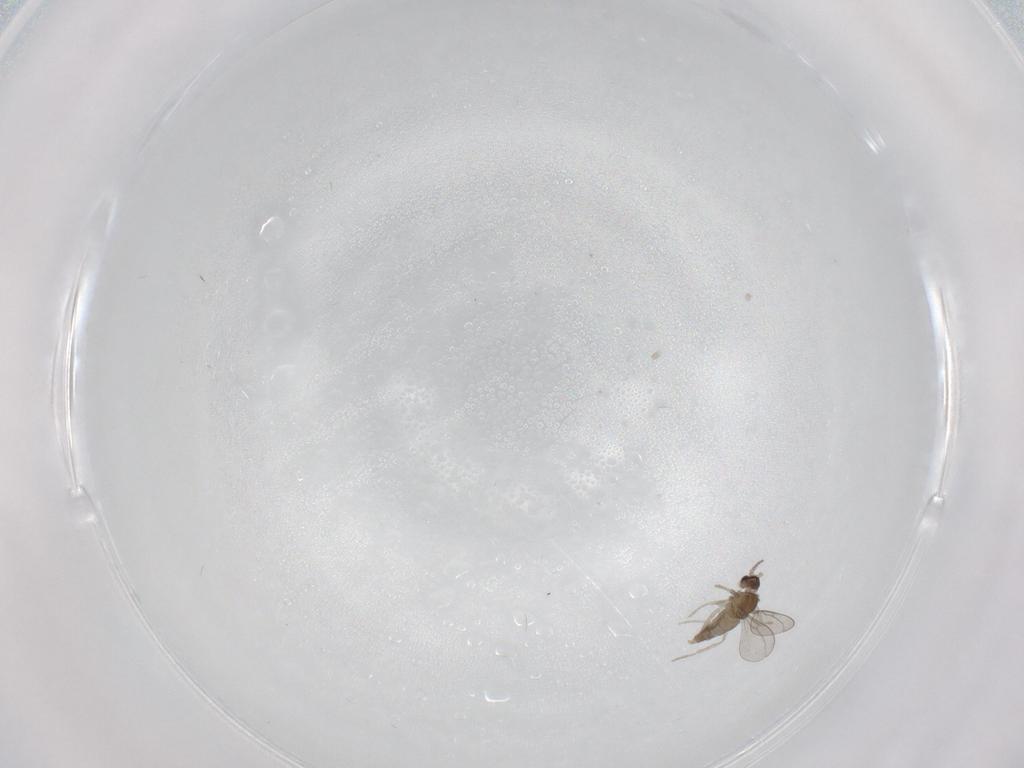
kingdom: Animalia
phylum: Arthropoda
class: Insecta
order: Diptera
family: Cecidomyiidae
